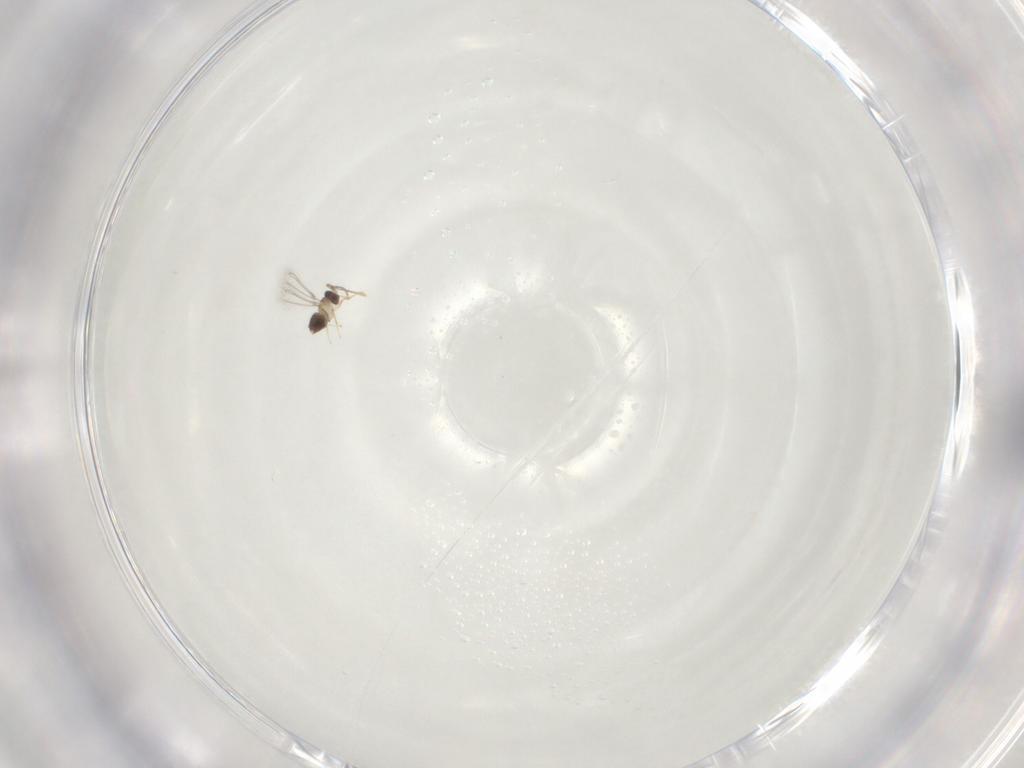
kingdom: Animalia
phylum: Arthropoda
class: Insecta
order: Hymenoptera
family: Mymaridae
